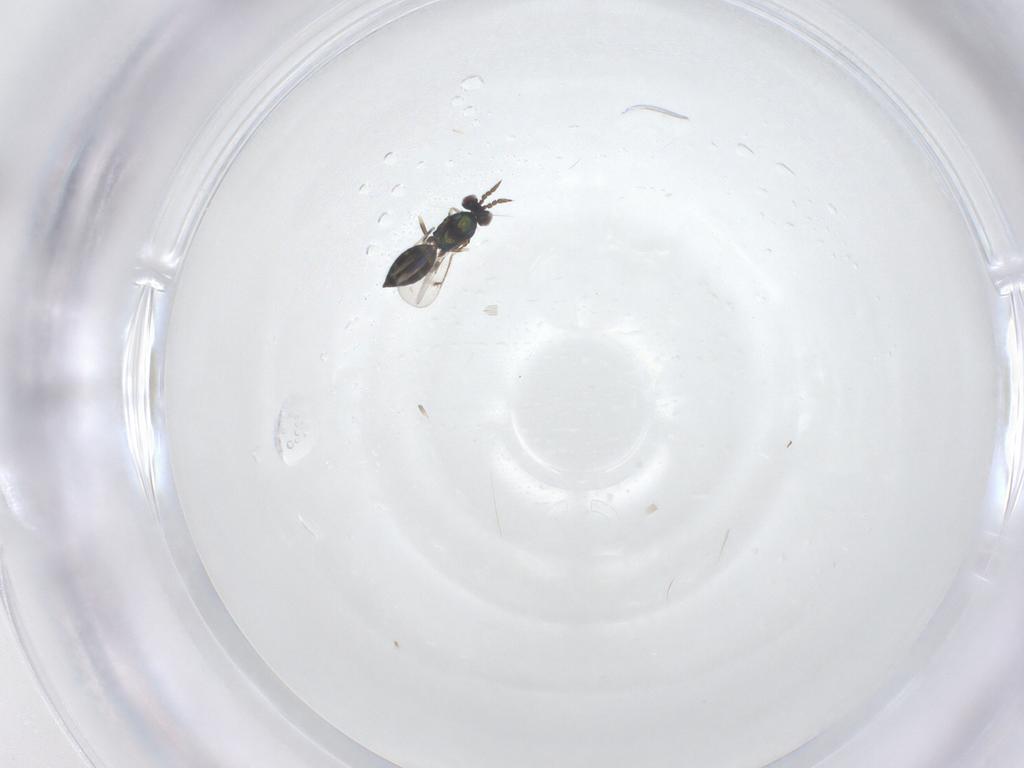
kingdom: Animalia
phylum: Arthropoda
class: Insecta
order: Hymenoptera
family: Eulophidae
